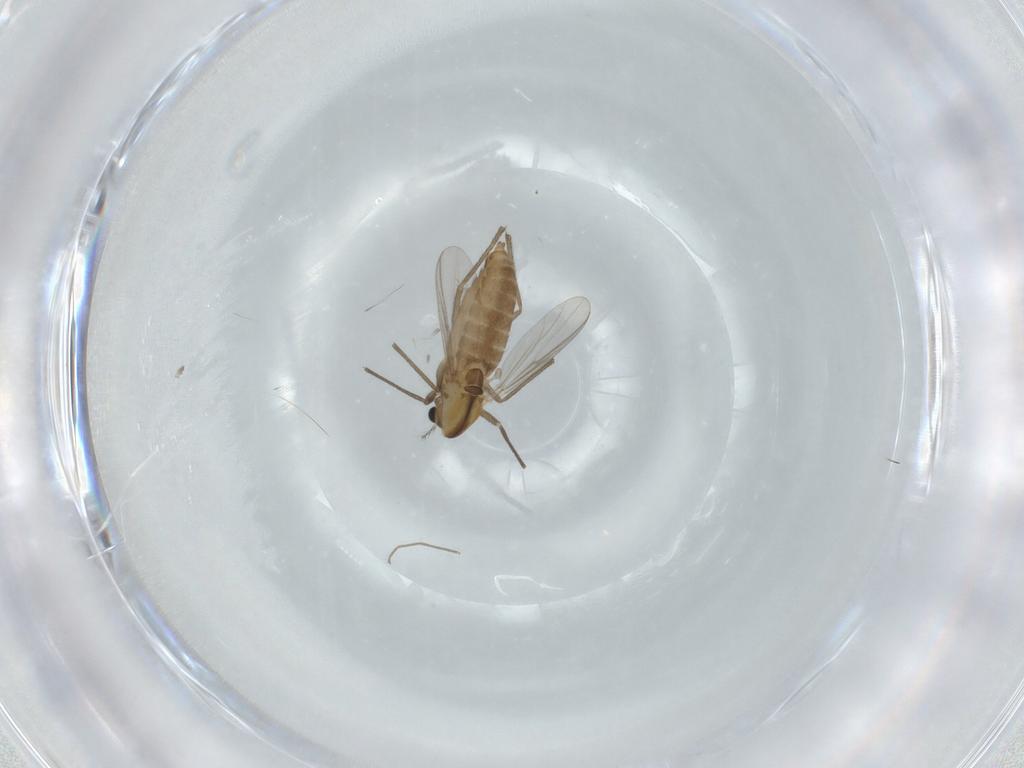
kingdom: Animalia
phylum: Arthropoda
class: Insecta
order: Diptera
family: Chironomidae
